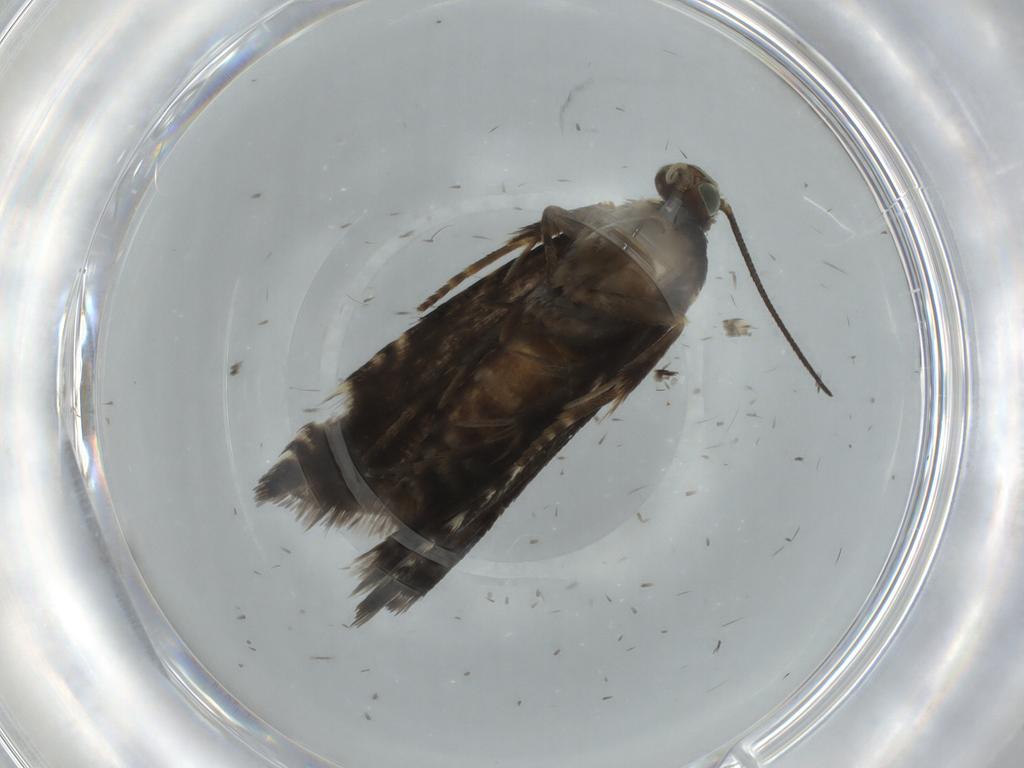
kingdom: Animalia
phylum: Arthropoda
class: Insecta
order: Lepidoptera
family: Tortricidae
